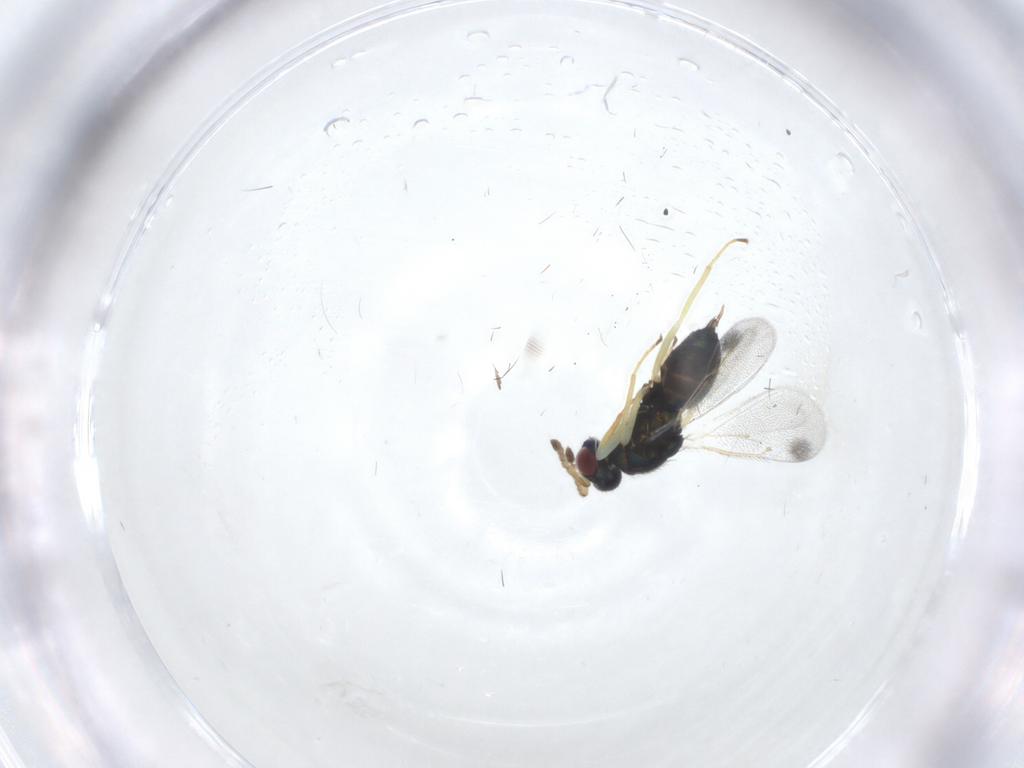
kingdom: Animalia
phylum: Arthropoda
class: Insecta
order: Hymenoptera
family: Eulophidae
